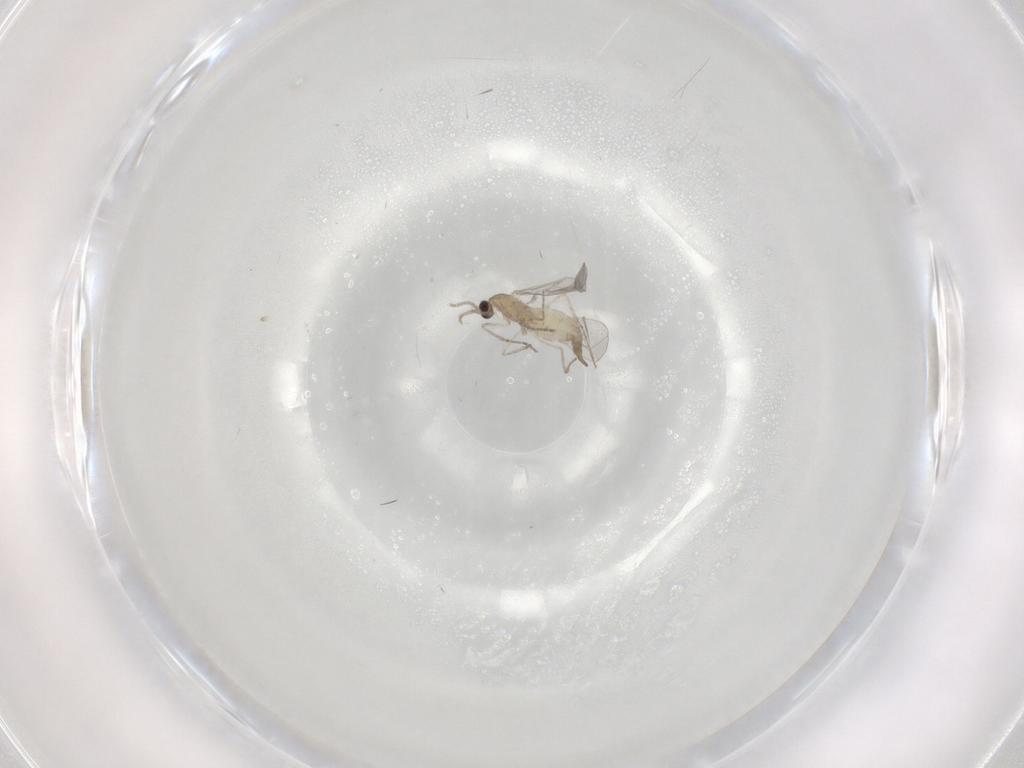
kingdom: Animalia
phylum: Arthropoda
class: Insecta
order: Diptera
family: Cecidomyiidae
